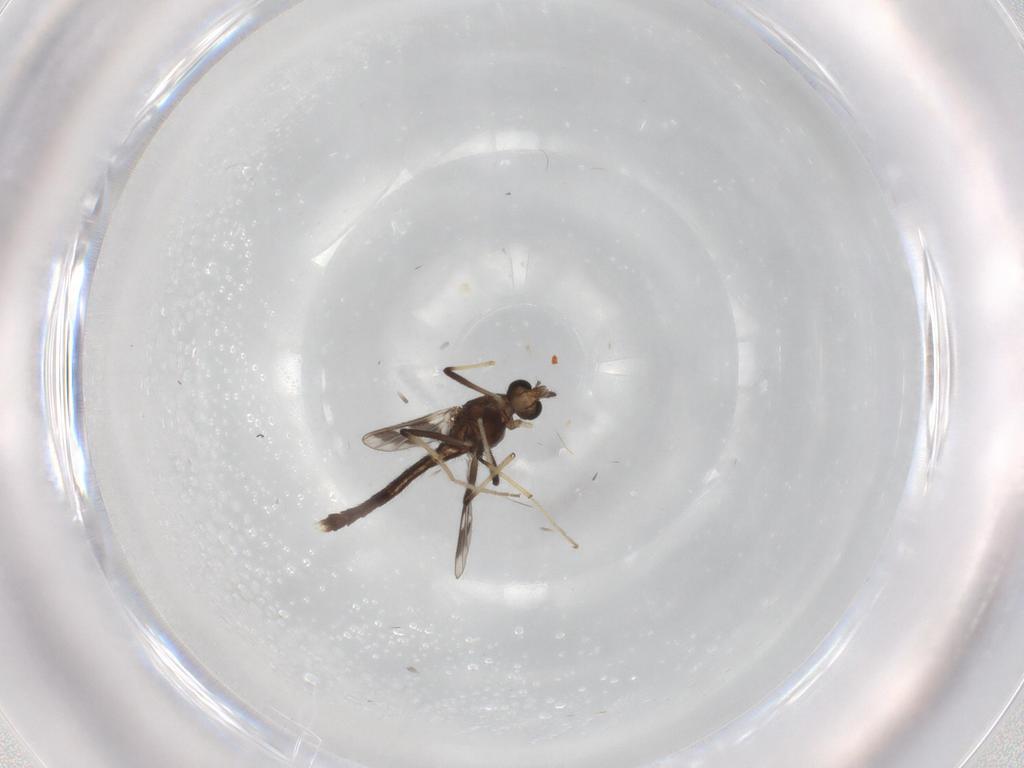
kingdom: Animalia
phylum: Arthropoda
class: Insecta
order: Diptera
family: Chironomidae
